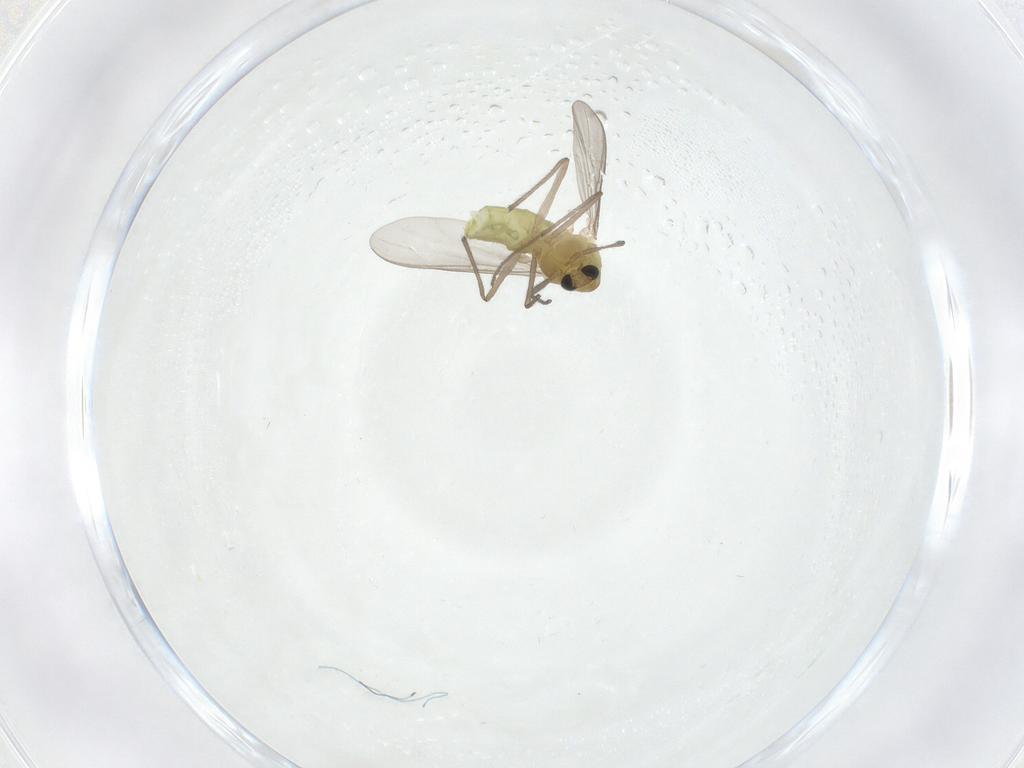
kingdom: Animalia
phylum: Arthropoda
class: Insecta
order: Diptera
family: Chironomidae
